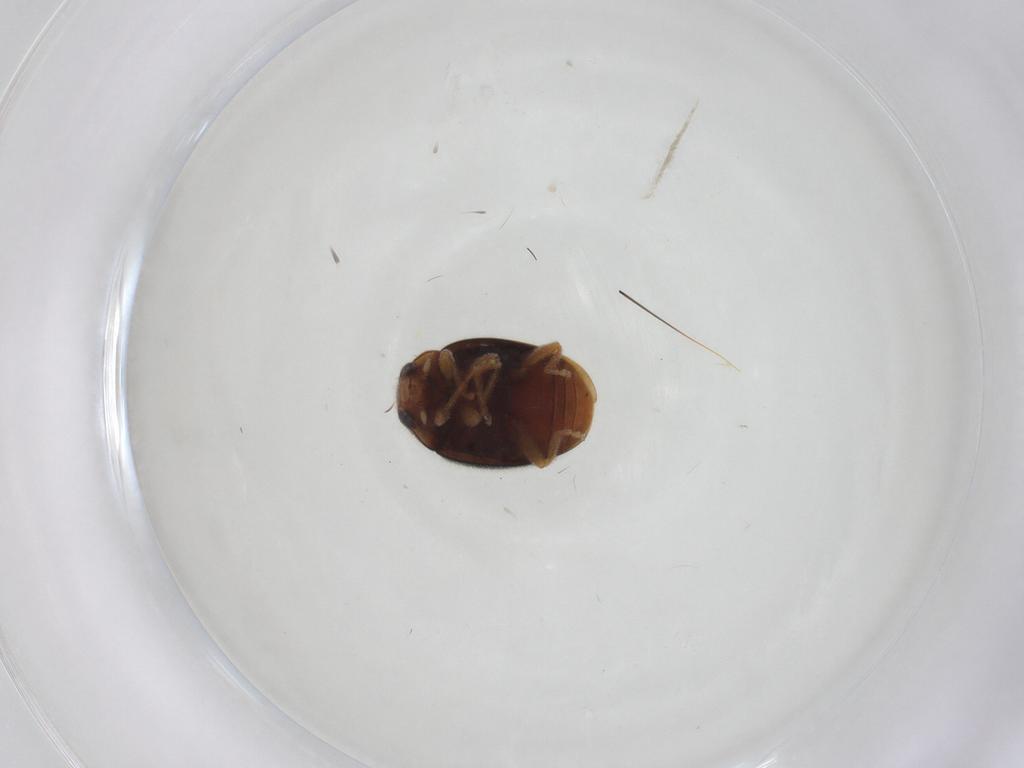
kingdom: Animalia
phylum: Arthropoda
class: Insecta
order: Coleoptera
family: Coccinellidae
